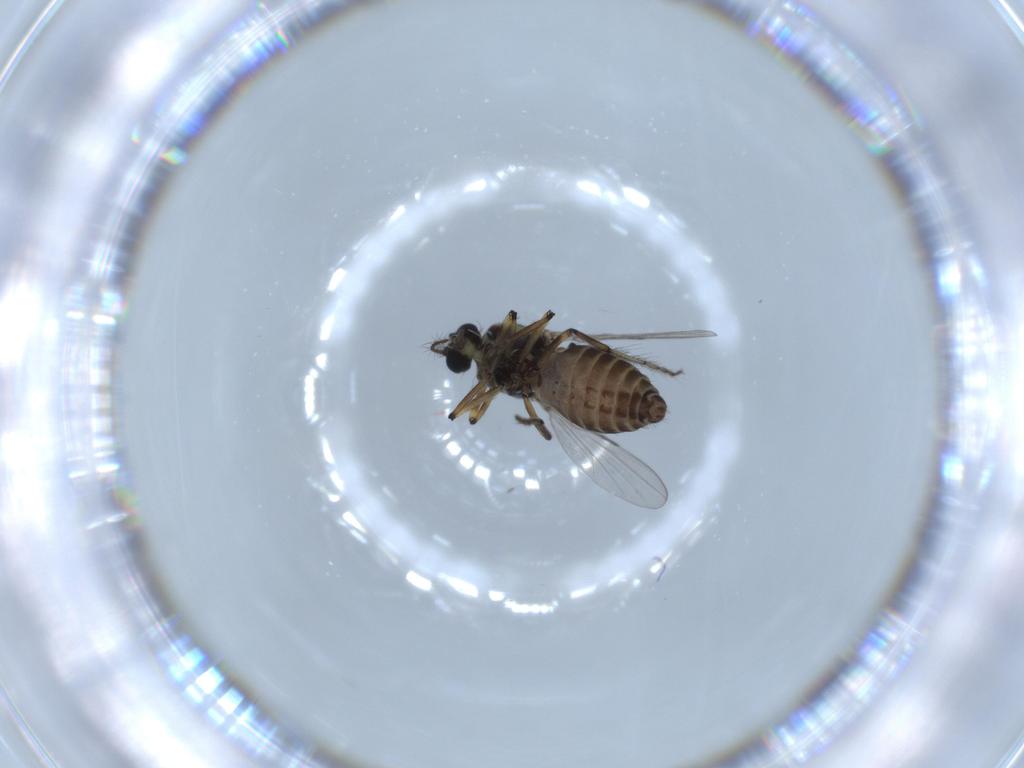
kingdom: Animalia
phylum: Arthropoda
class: Insecta
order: Diptera
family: Ceratopogonidae
